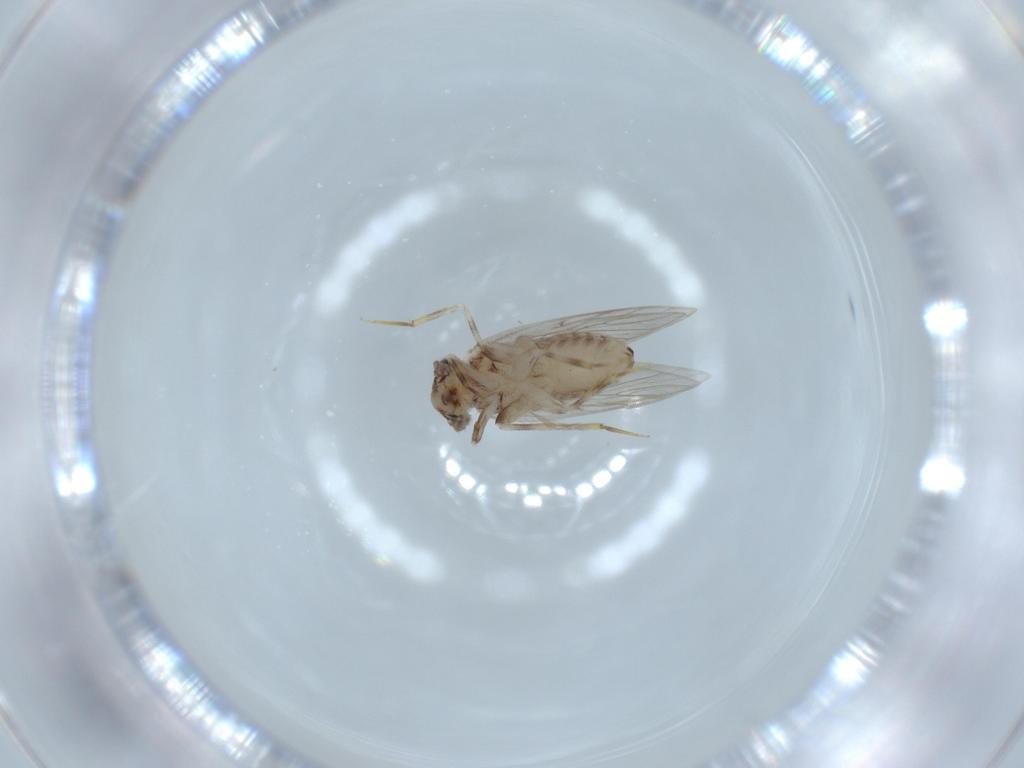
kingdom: Animalia
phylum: Arthropoda
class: Insecta
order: Psocodea
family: Lepidopsocidae
